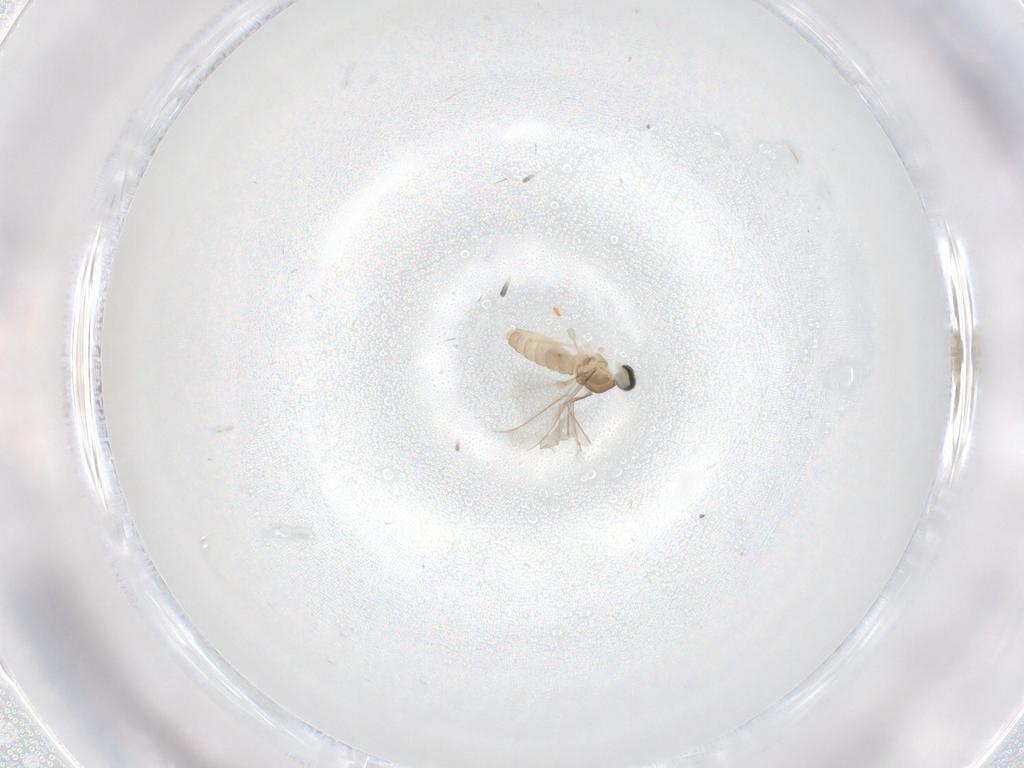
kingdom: Animalia
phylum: Arthropoda
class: Insecta
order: Diptera
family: Cecidomyiidae
